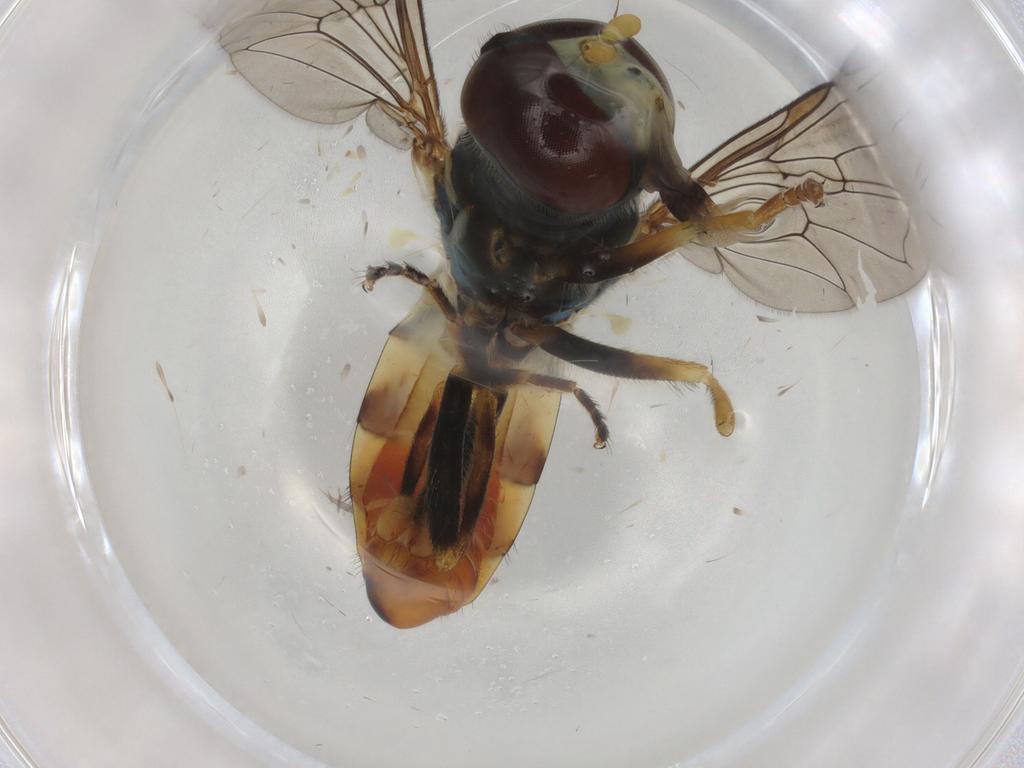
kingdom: Animalia
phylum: Arthropoda
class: Insecta
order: Diptera
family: Syrphidae
